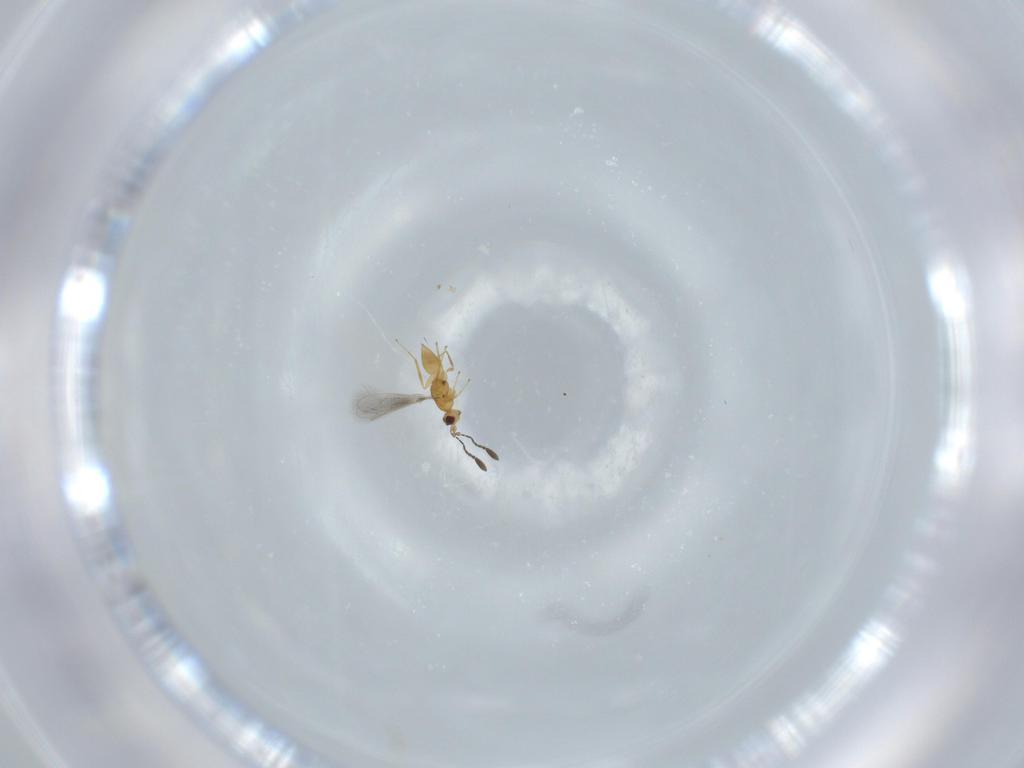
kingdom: Animalia
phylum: Arthropoda
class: Insecta
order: Hymenoptera
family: Mymaridae
